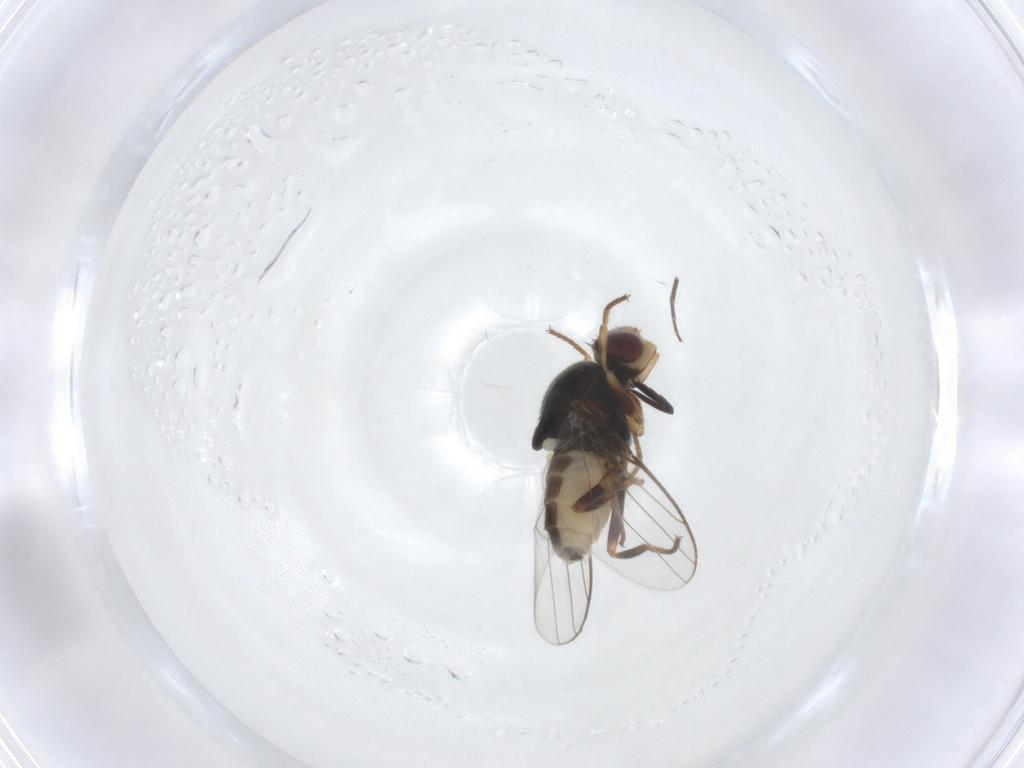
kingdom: Animalia
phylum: Arthropoda
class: Insecta
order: Diptera
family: Chloropidae
